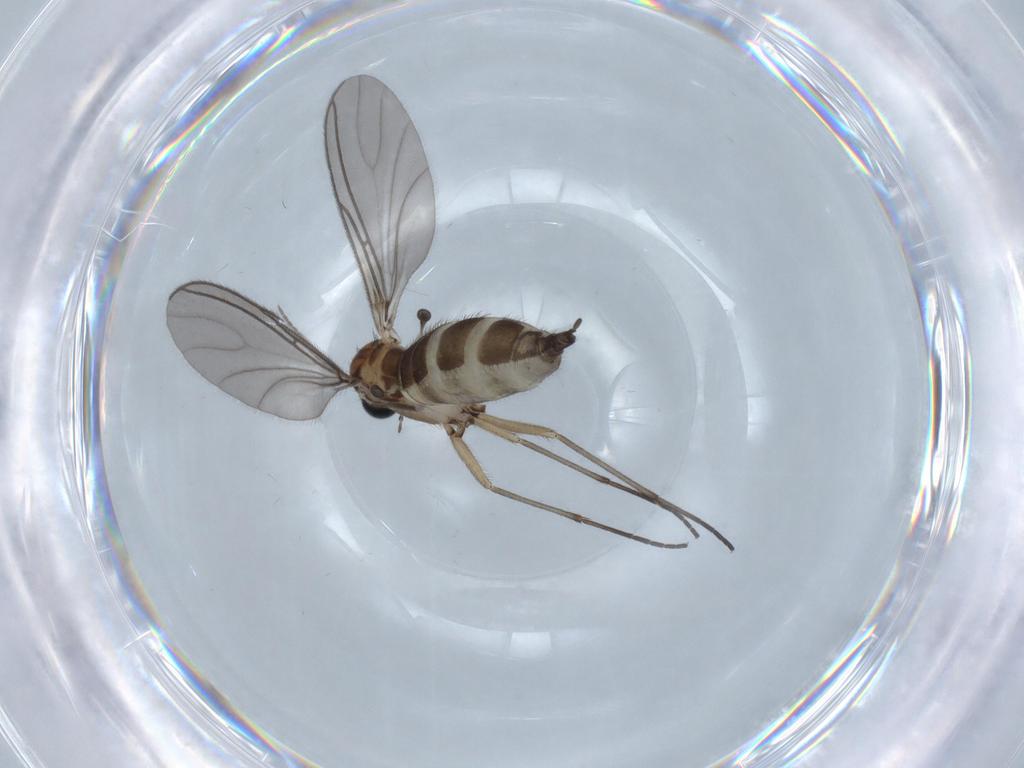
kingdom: Animalia
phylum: Arthropoda
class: Insecta
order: Diptera
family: Sciaridae
